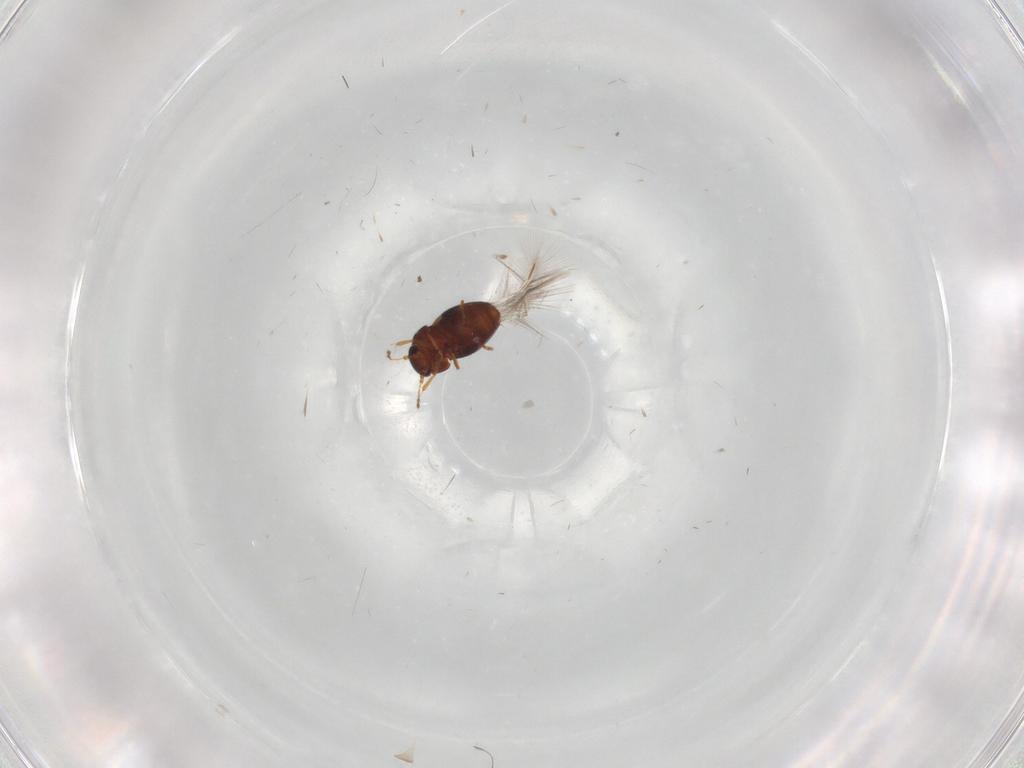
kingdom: Animalia
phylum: Arthropoda
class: Insecta
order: Coleoptera
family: Ptiliidae
